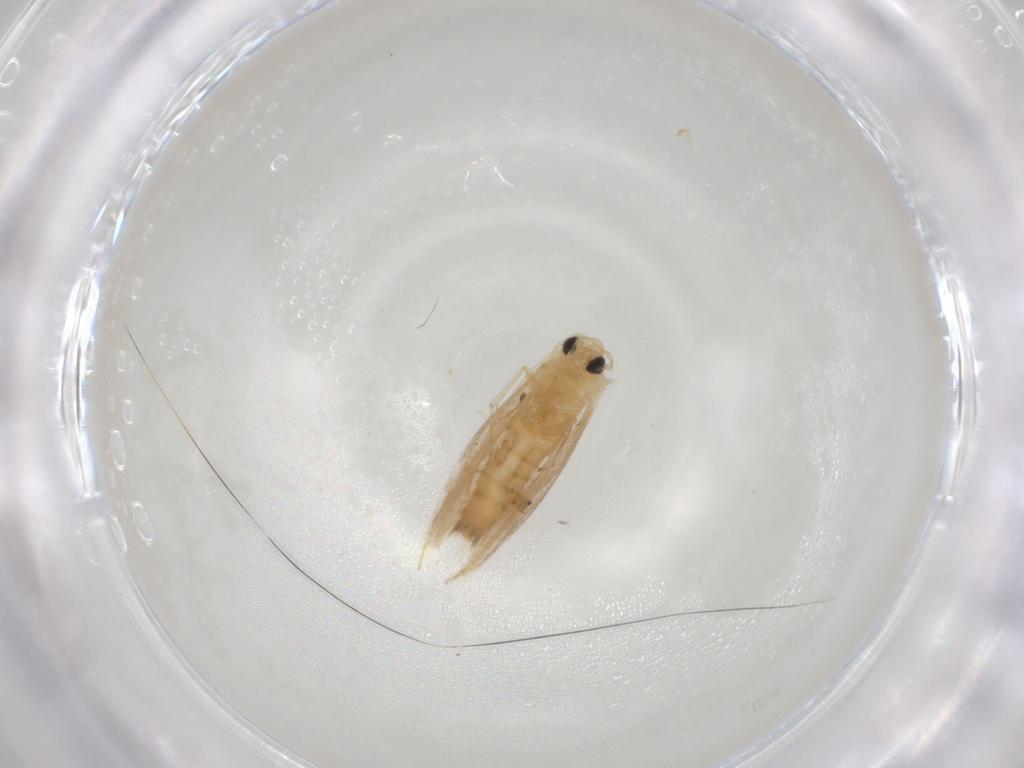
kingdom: Animalia
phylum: Arthropoda
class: Insecta
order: Lepidoptera
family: Bucculatricidae
